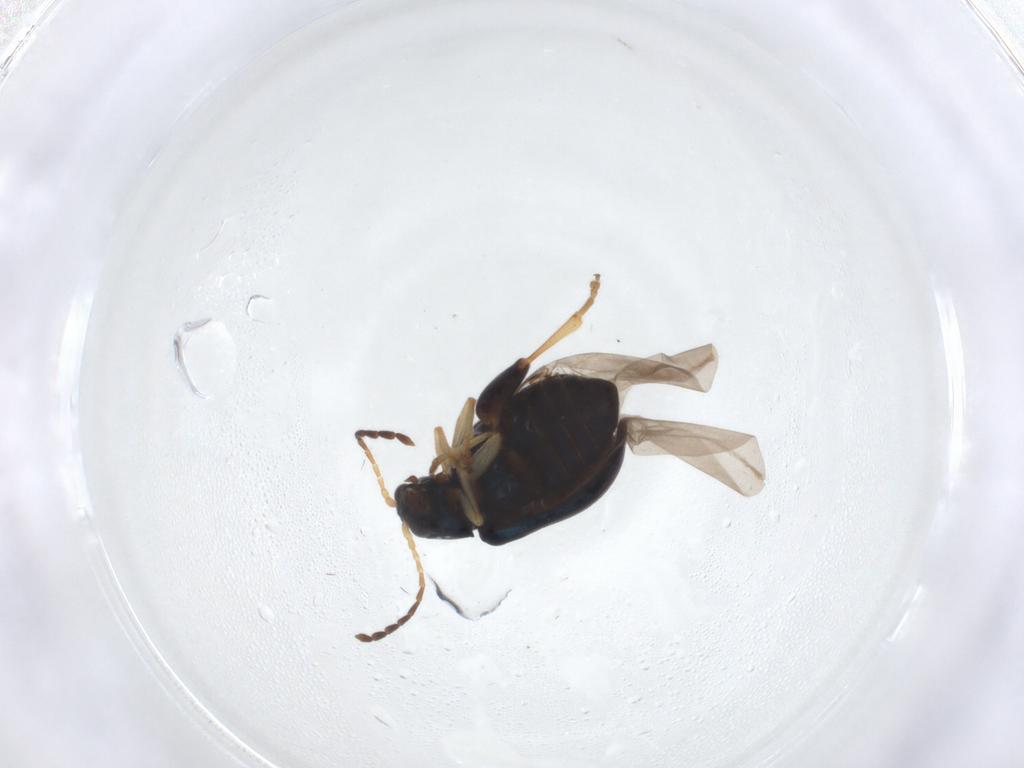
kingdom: Animalia
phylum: Arthropoda
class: Insecta
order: Coleoptera
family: Chrysomelidae
